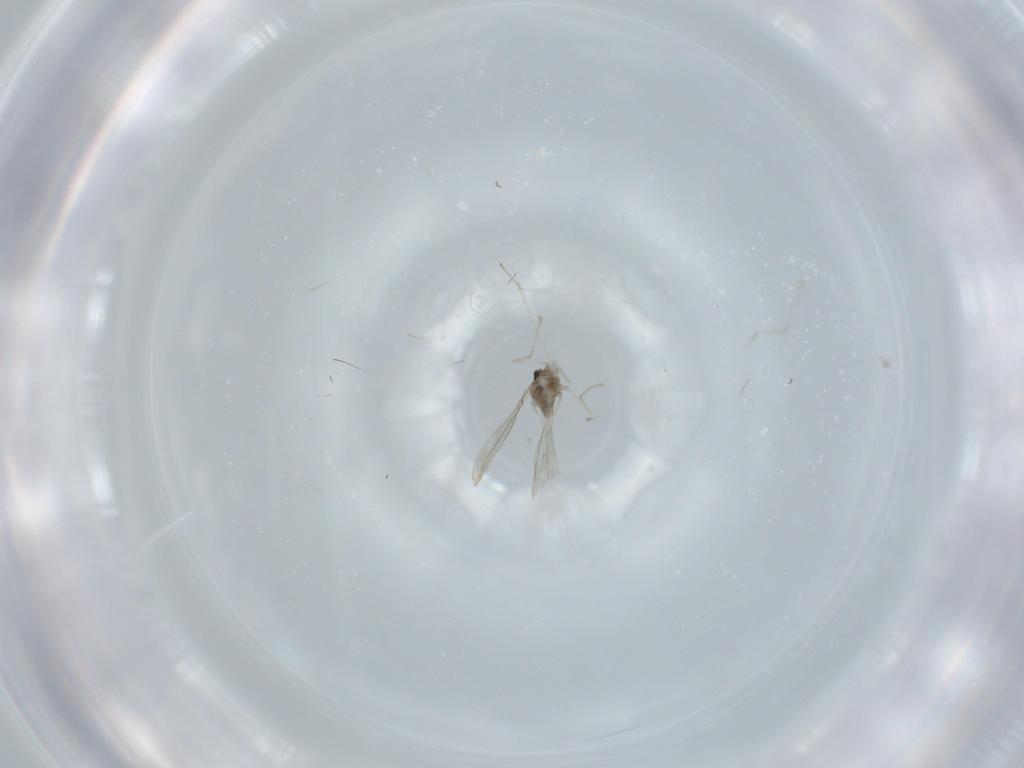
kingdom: Animalia
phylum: Arthropoda
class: Insecta
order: Diptera
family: Cecidomyiidae
